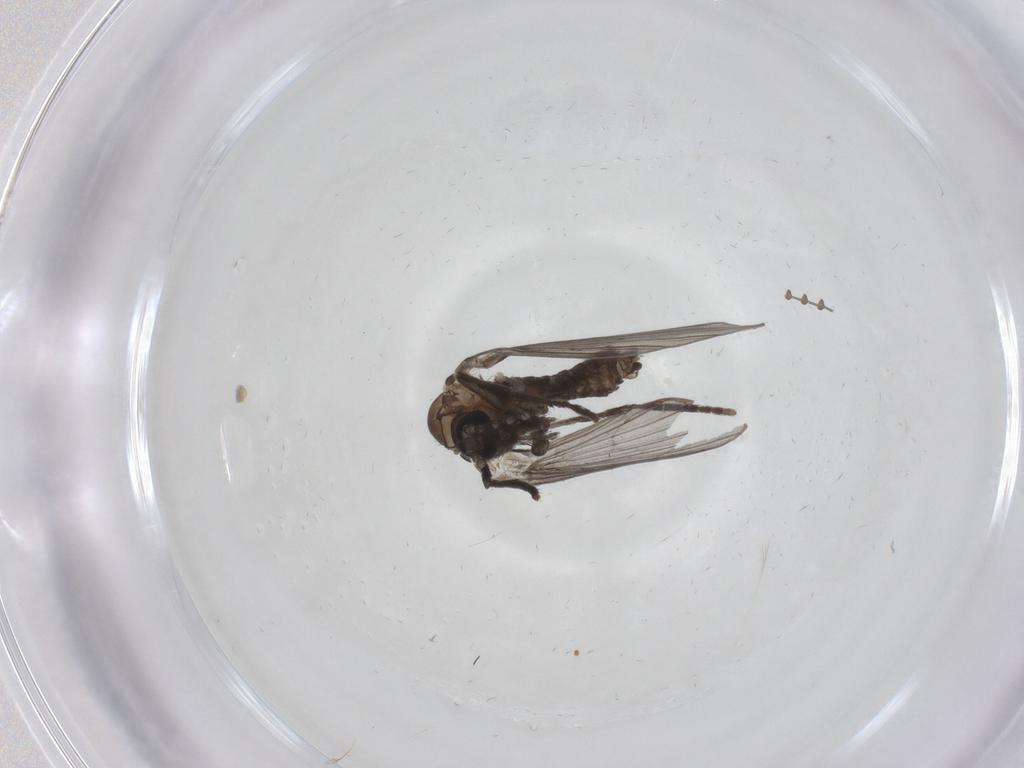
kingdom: Animalia
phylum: Arthropoda
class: Insecta
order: Diptera
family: Psychodidae
